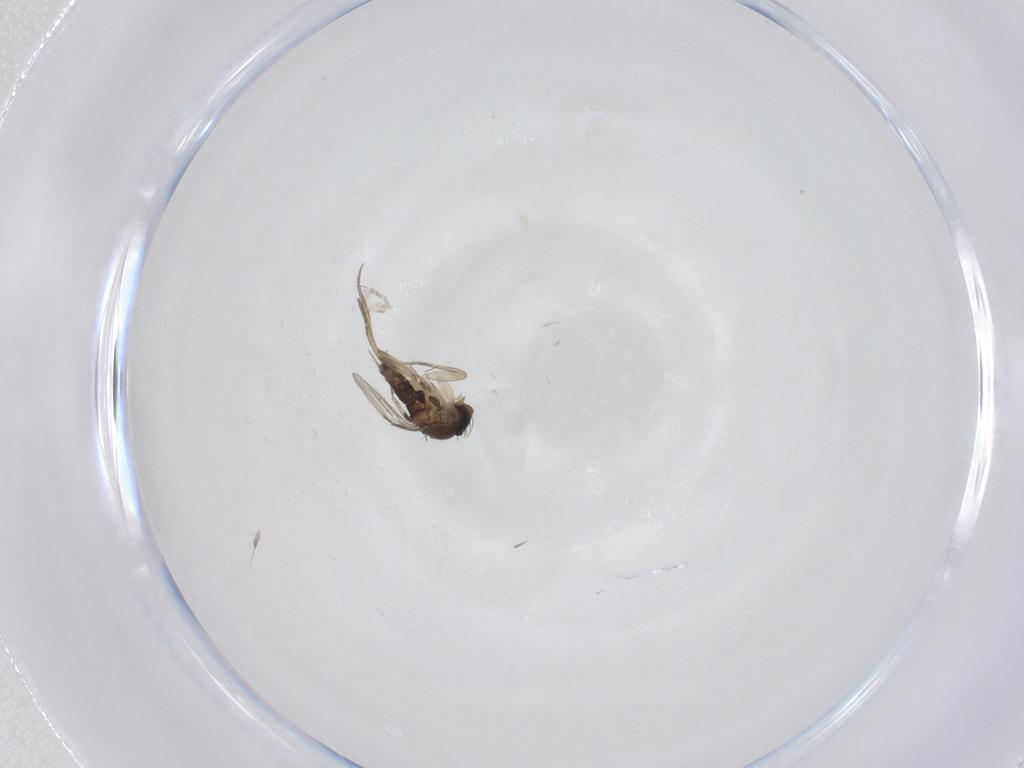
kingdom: Animalia
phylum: Arthropoda
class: Insecta
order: Diptera
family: Phoridae
